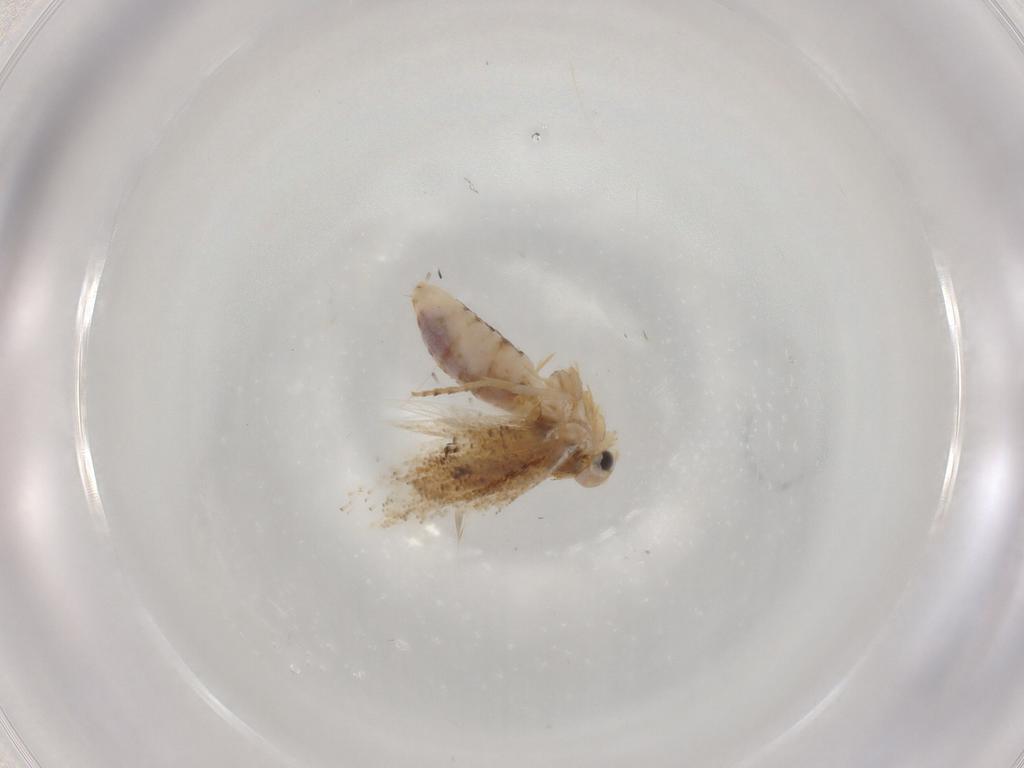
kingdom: Animalia
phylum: Arthropoda
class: Insecta
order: Lepidoptera
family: Bucculatricidae
